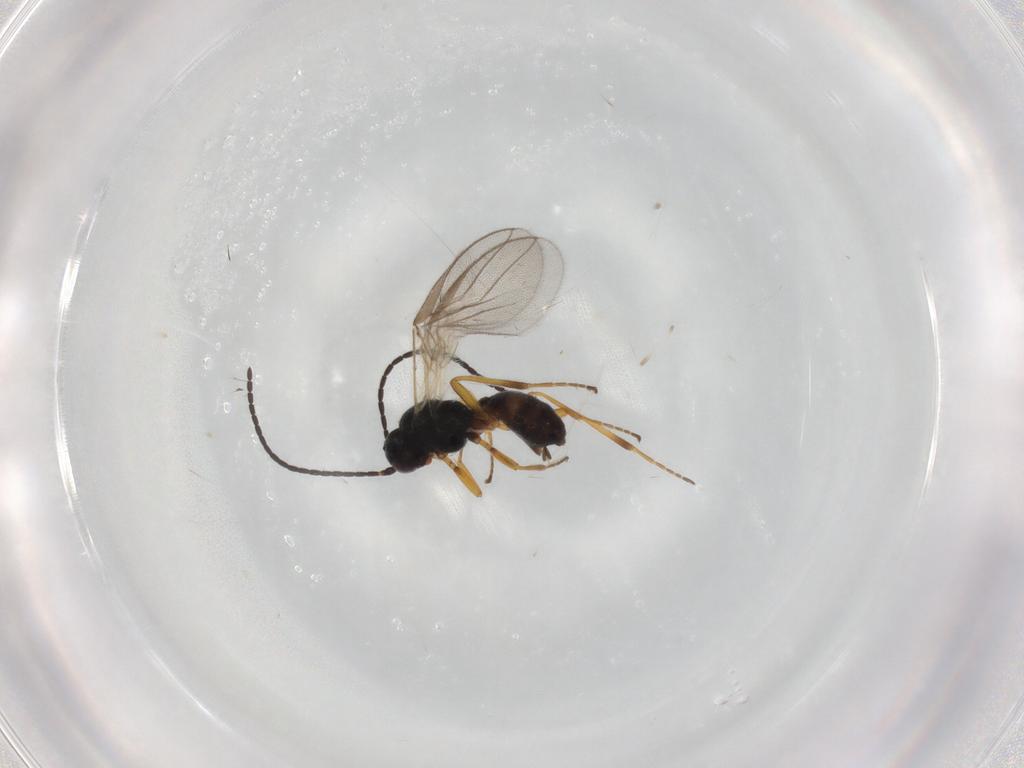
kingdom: Animalia
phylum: Arthropoda
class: Insecta
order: Hymenoptera
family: Braconidae
